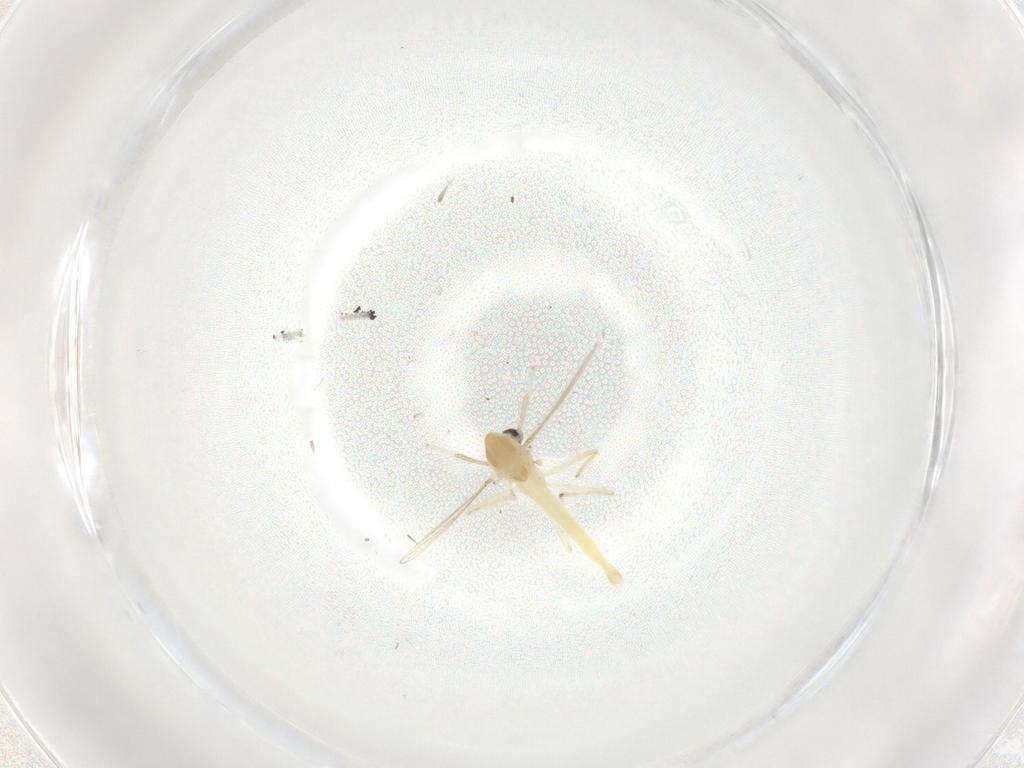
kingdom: Animalia
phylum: Arthropoda
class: Insecta
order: Diptera
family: Chironomidae
